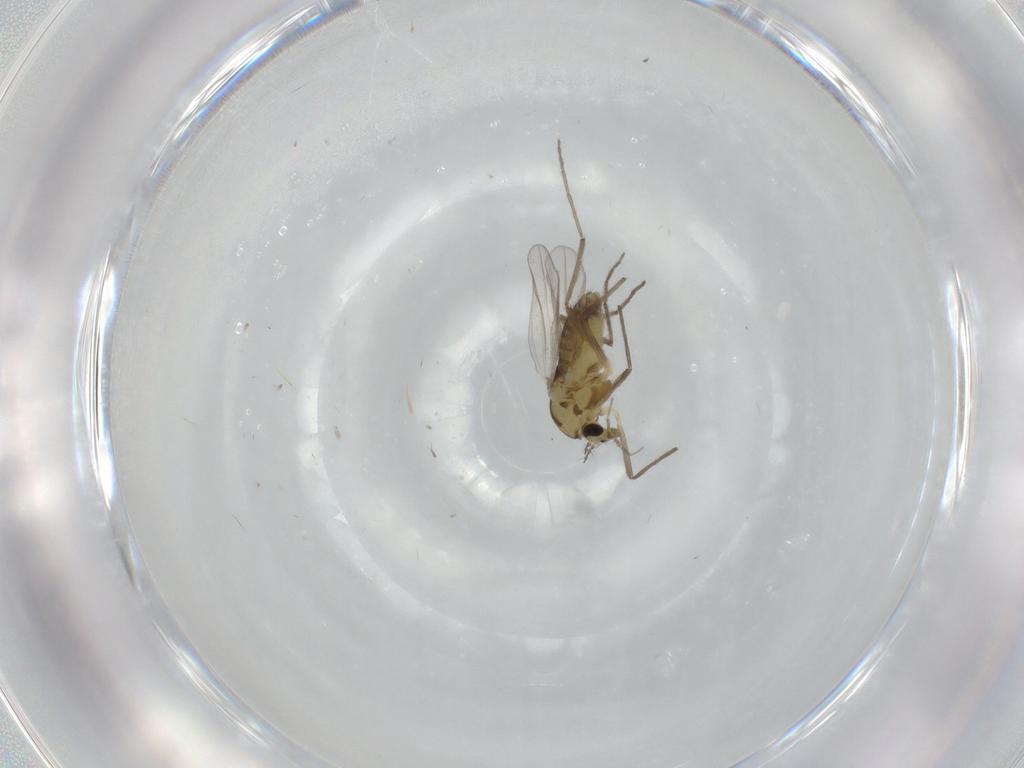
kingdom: Animalia
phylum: Arthropoda
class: Insecta
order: Diptera
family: Chironomidae
